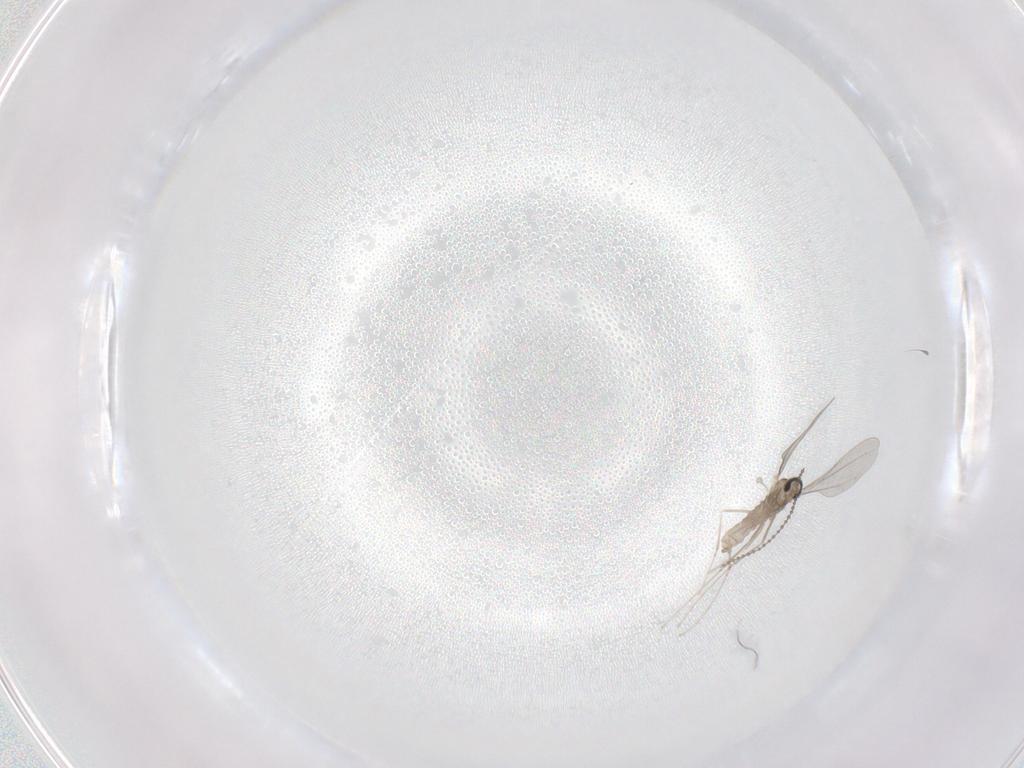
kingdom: Animalia
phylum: Arthropoda
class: Insecta
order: Diptera
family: Cecidomyiidae
